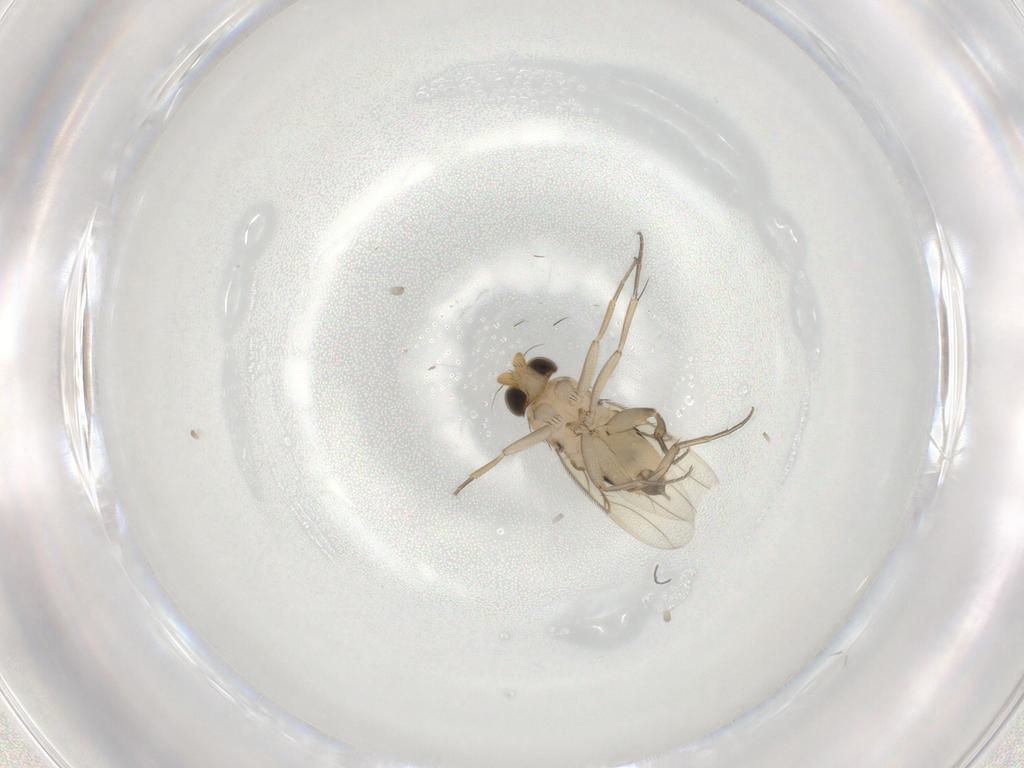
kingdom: Animalia
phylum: Arthropoda
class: Insecta
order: Diptera
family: Phoridae
